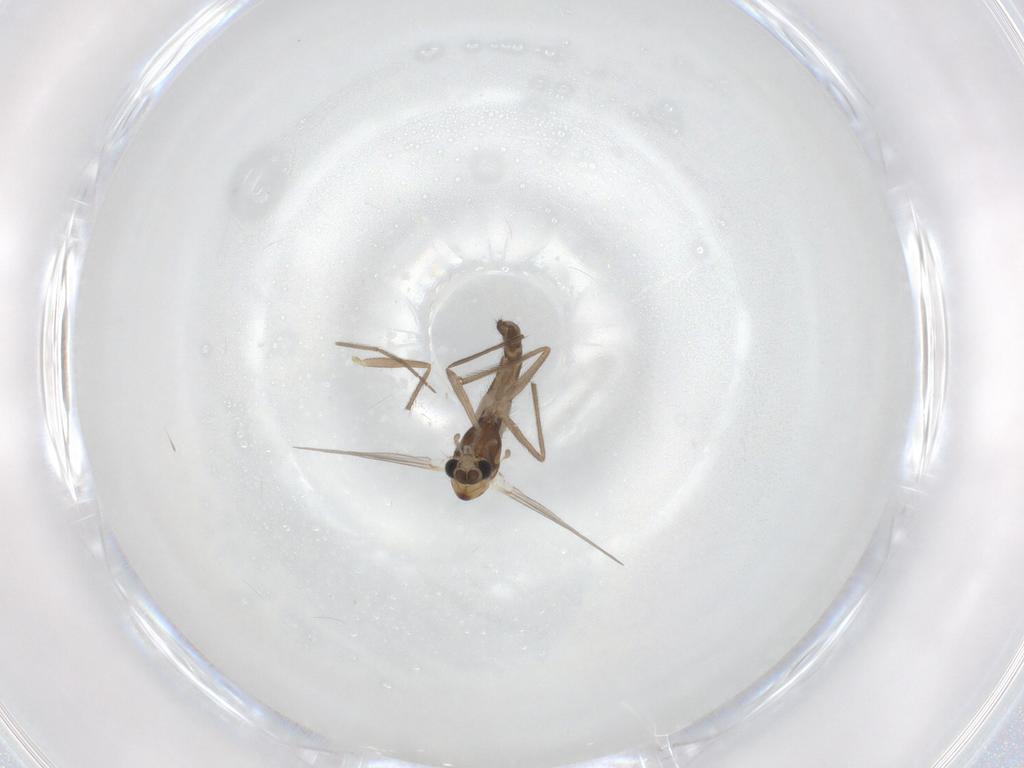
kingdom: Animalia
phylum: Arthropoda
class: Insecta
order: Diptera
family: Chironomidae
